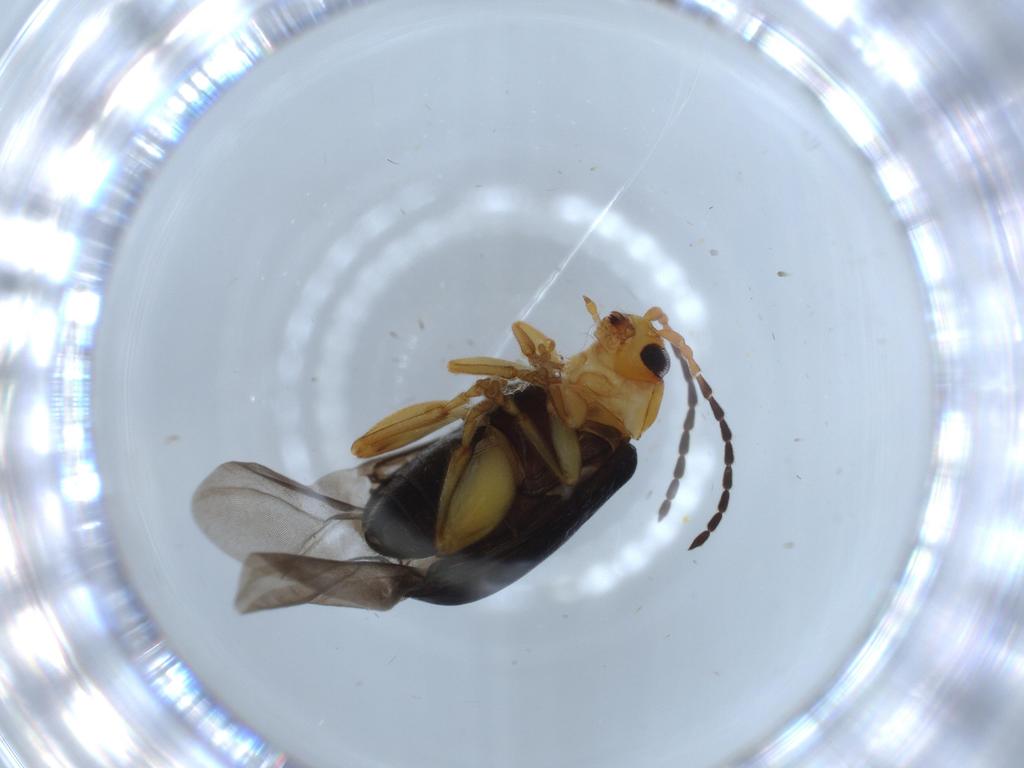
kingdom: Animalia
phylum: Arthropoda
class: Insecta
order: Coleoptera
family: Chrysomelidae
